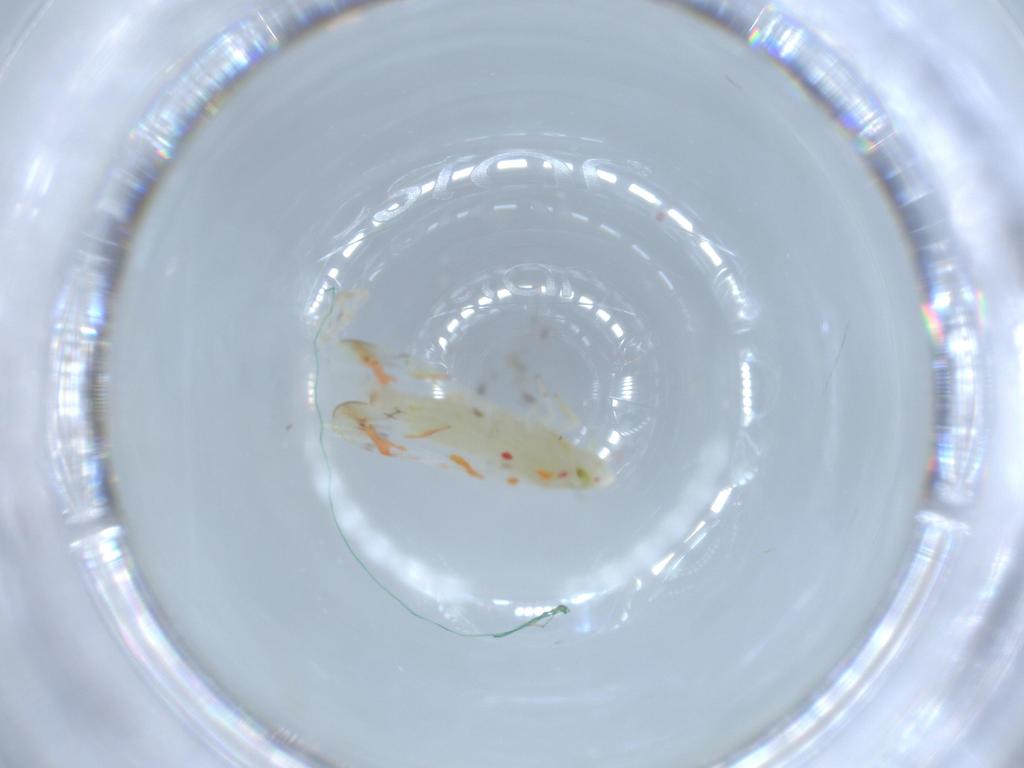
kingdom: Animalia
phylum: Arthropoda
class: Insecta
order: Hemiptera
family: Cicadellidae
